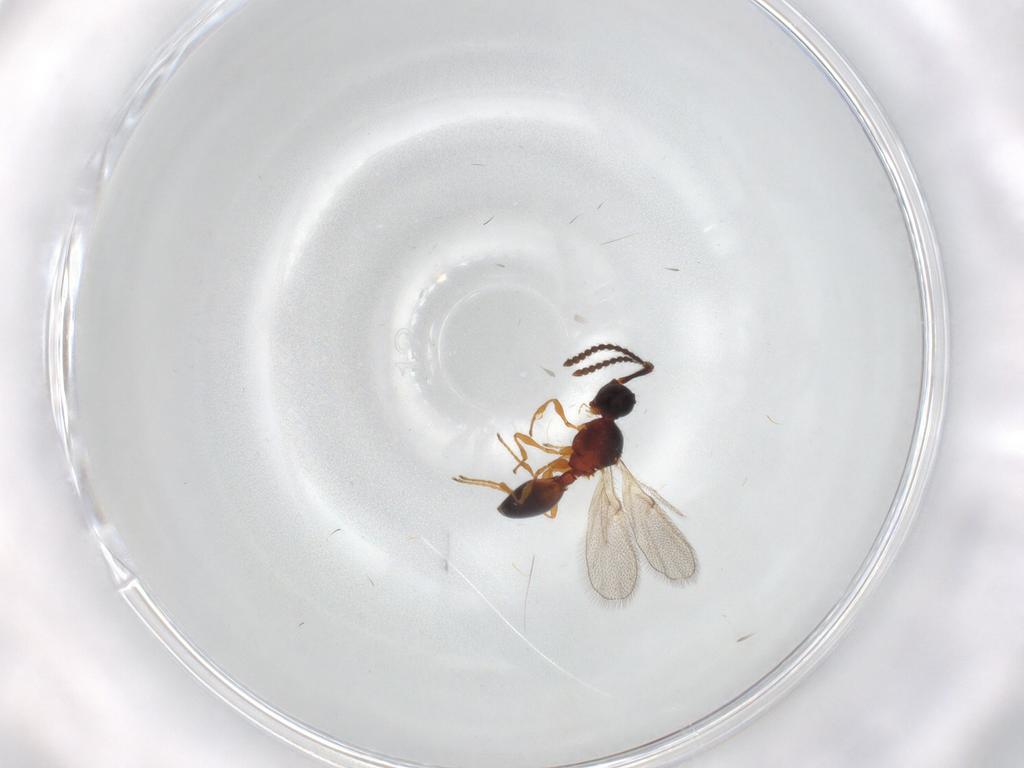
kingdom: Animalia
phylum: Arthropoda
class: Insecta
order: Hymenoptera
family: Diapriidae
